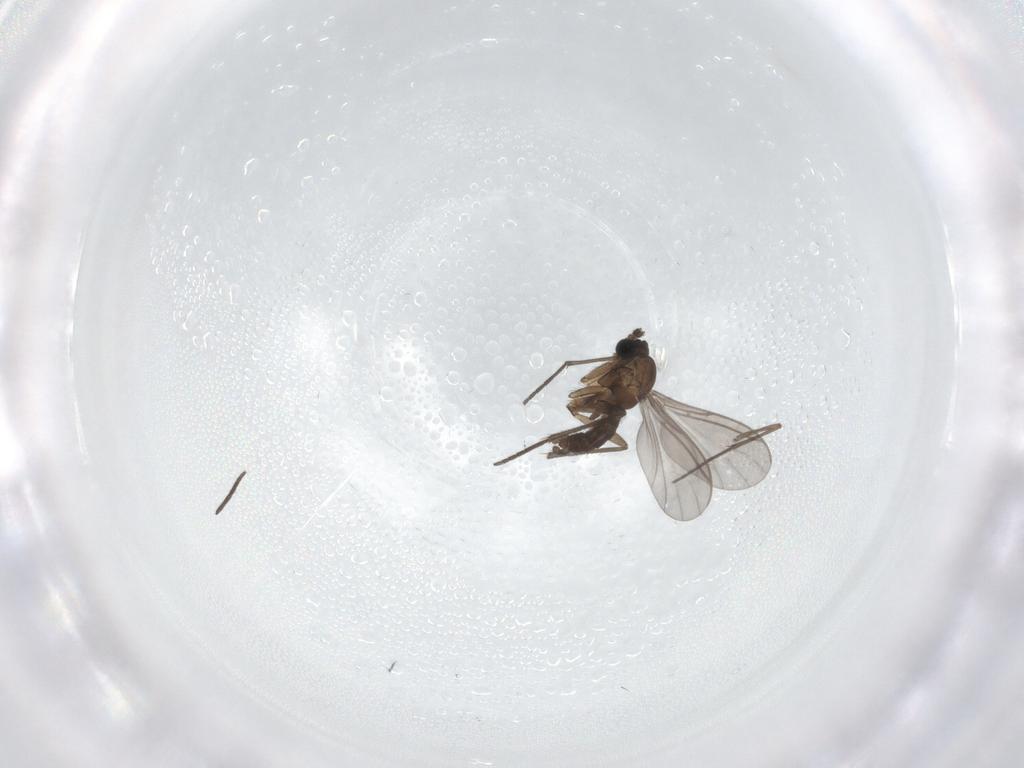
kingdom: Animalia
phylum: Arthropoda
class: Insecta
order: Diptera
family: Sciaridae
